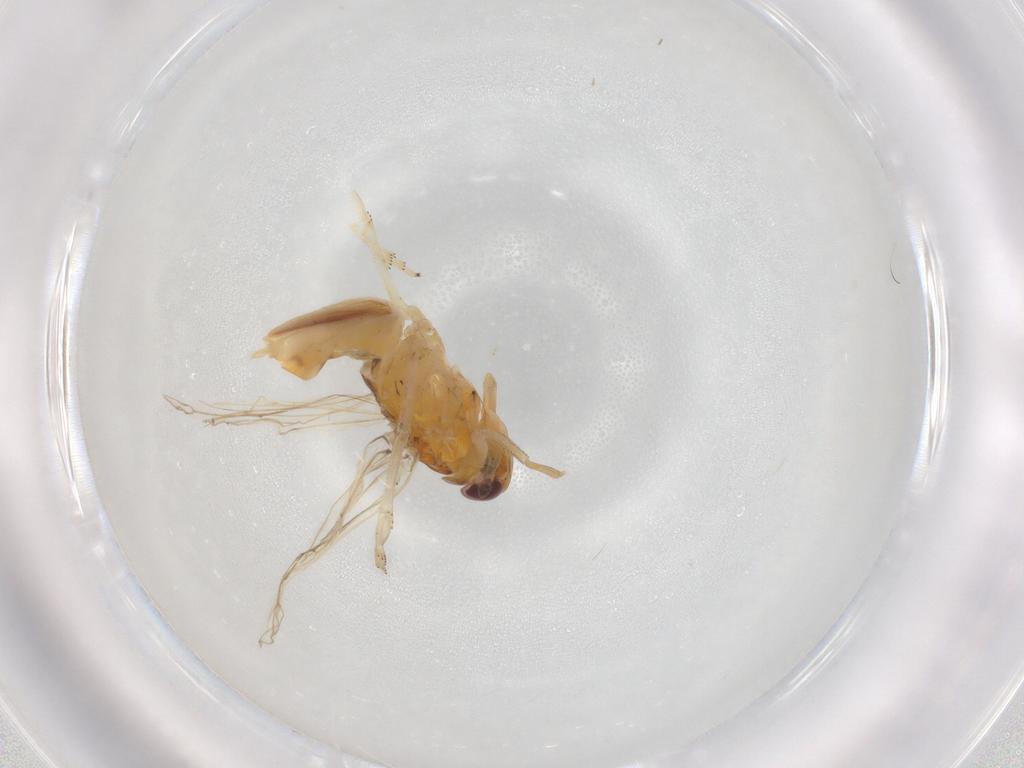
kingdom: Animalia
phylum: Arthropoda
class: Insecta
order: Hemiptera
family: Delphacidae
